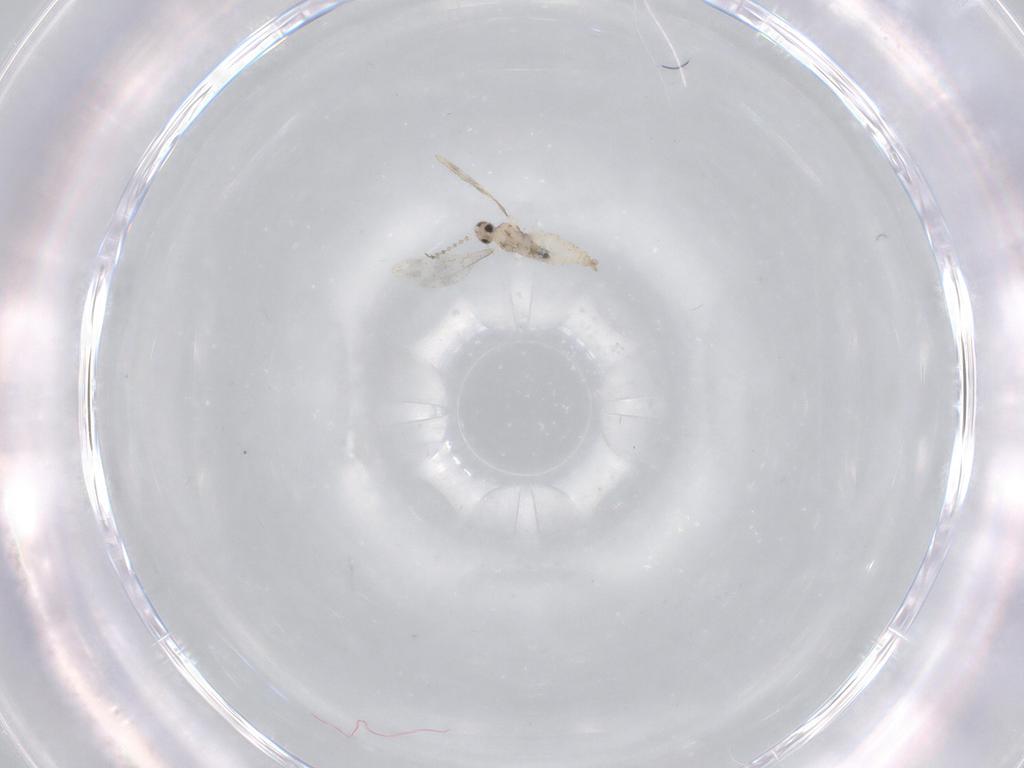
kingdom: Animalia
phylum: Arthropoda
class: Insecta
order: Diptera
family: Cecidomyiidae
